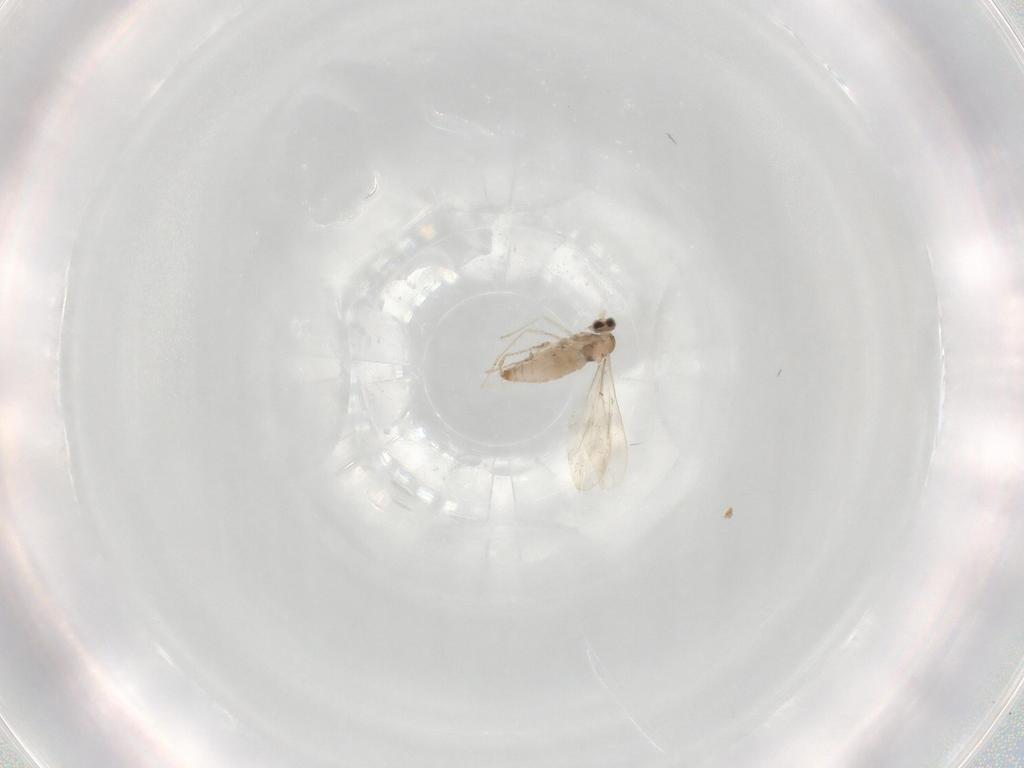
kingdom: Animalia
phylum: Arthropoda
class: Insecta
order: Diptera
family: Cecidomyiidae
